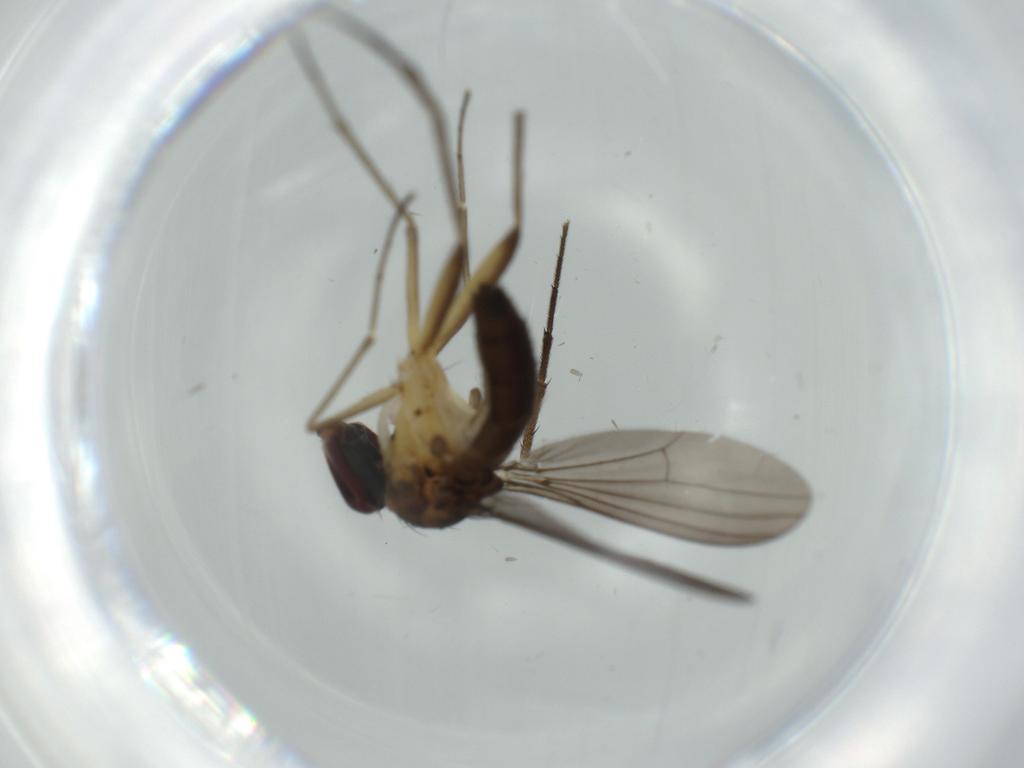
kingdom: Animalia
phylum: Arthropoda
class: Insecta
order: Diptera
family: Dolichopodidae
